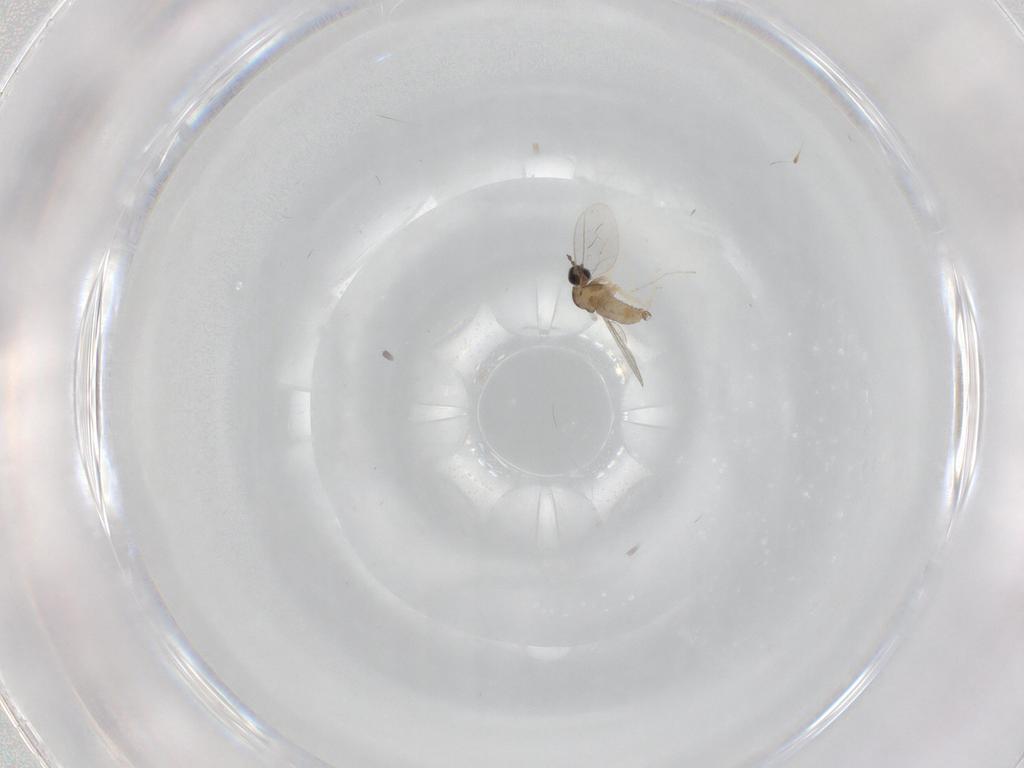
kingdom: Animalia
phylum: Arthropoda
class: Insecta
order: Diptera
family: Cecidomyiidae
